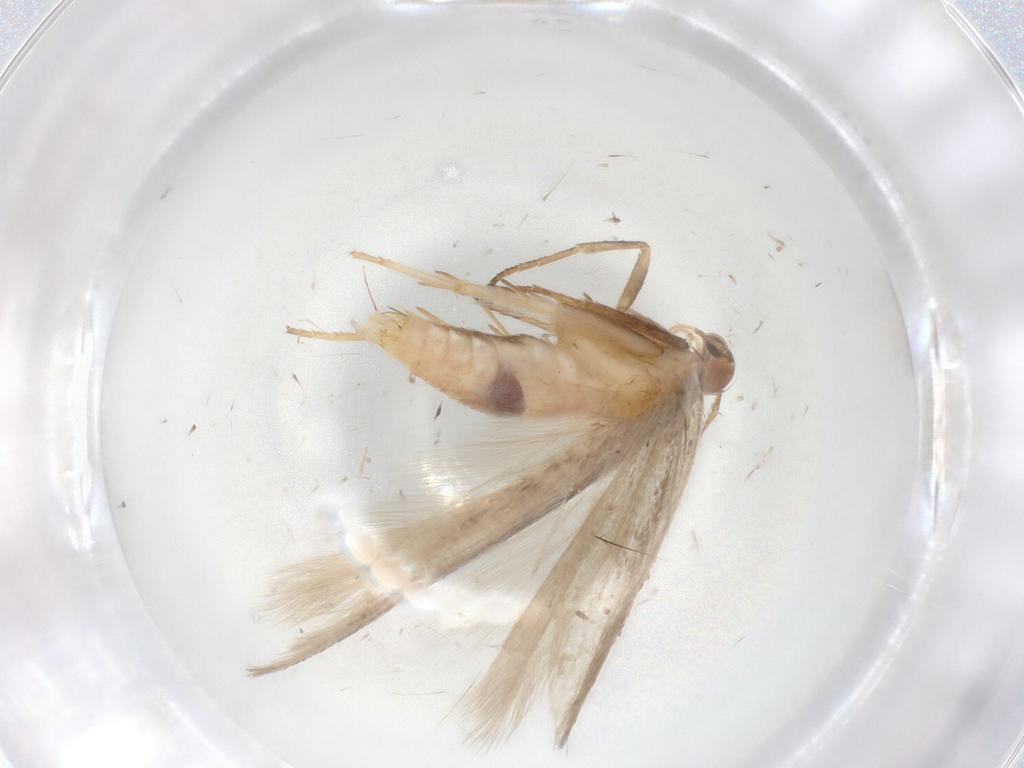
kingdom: Animalia
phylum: Arthropoda
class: Insecta
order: Lepidoptera
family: Gelechiidae
